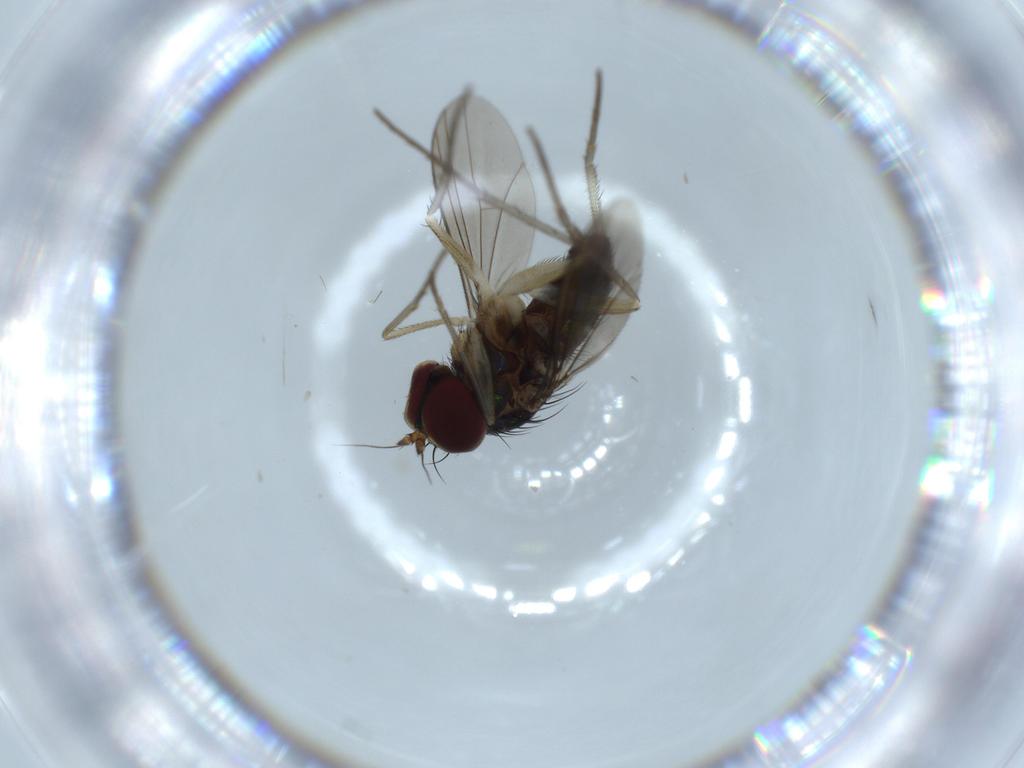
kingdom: Animalia
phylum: Arthropoda
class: Insecta
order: Diptera
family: Dolichopodidae
